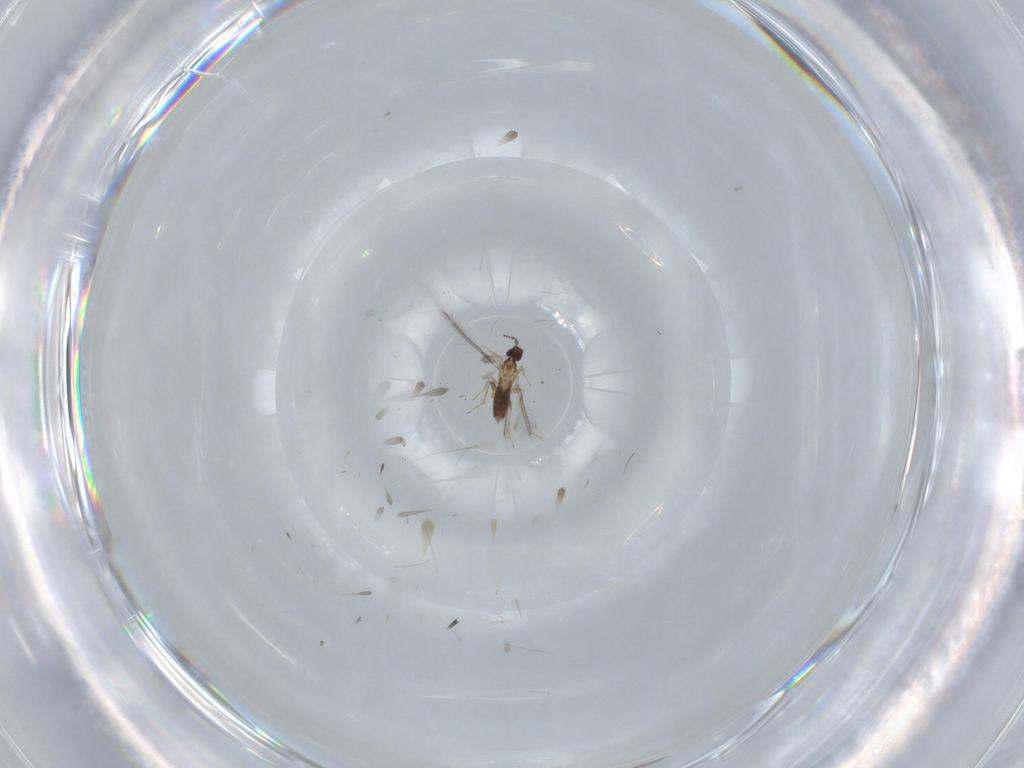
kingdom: Animalia
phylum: Arthropoda
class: Insecta
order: Hymenoptera
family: Mymaridae
